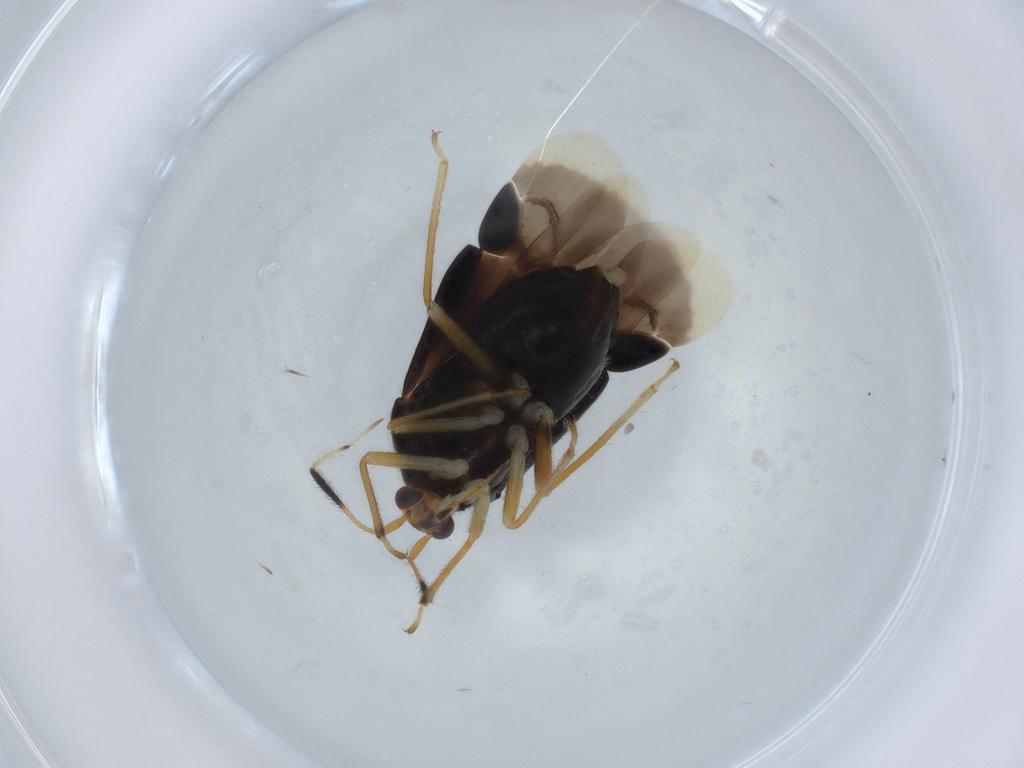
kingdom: Animalia
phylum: Arthropoda
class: Insecta
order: Hemiptera
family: Miridae
